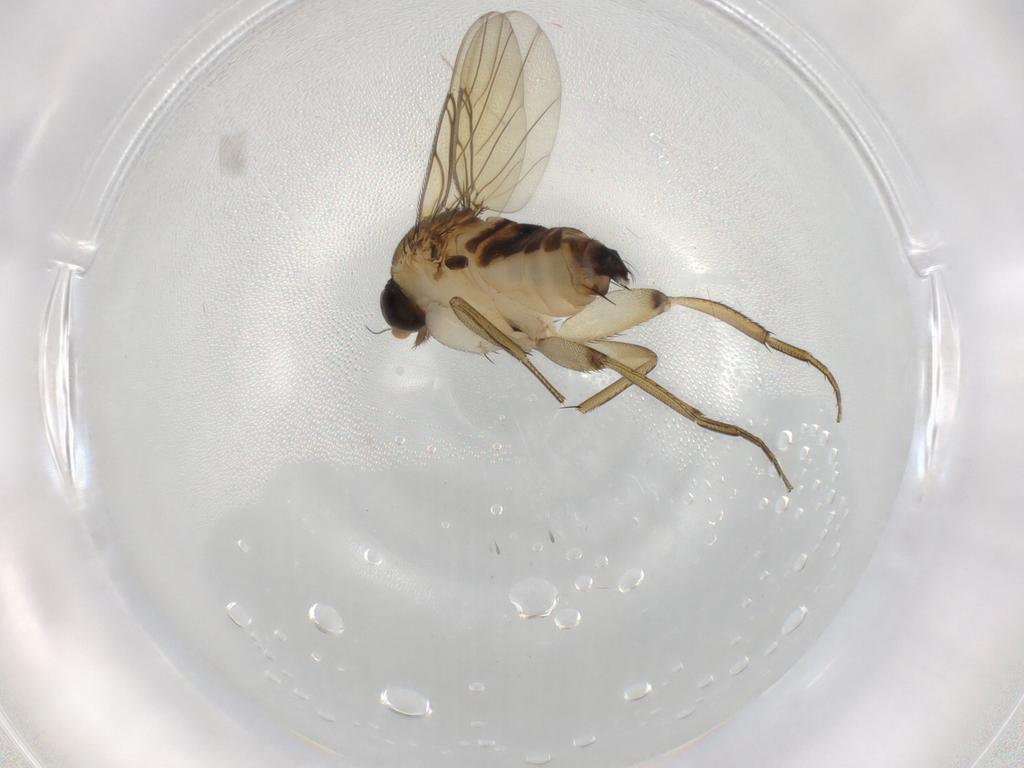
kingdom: Animalia
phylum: Arthropoda
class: Insecta
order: Diptera
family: Phoridae
